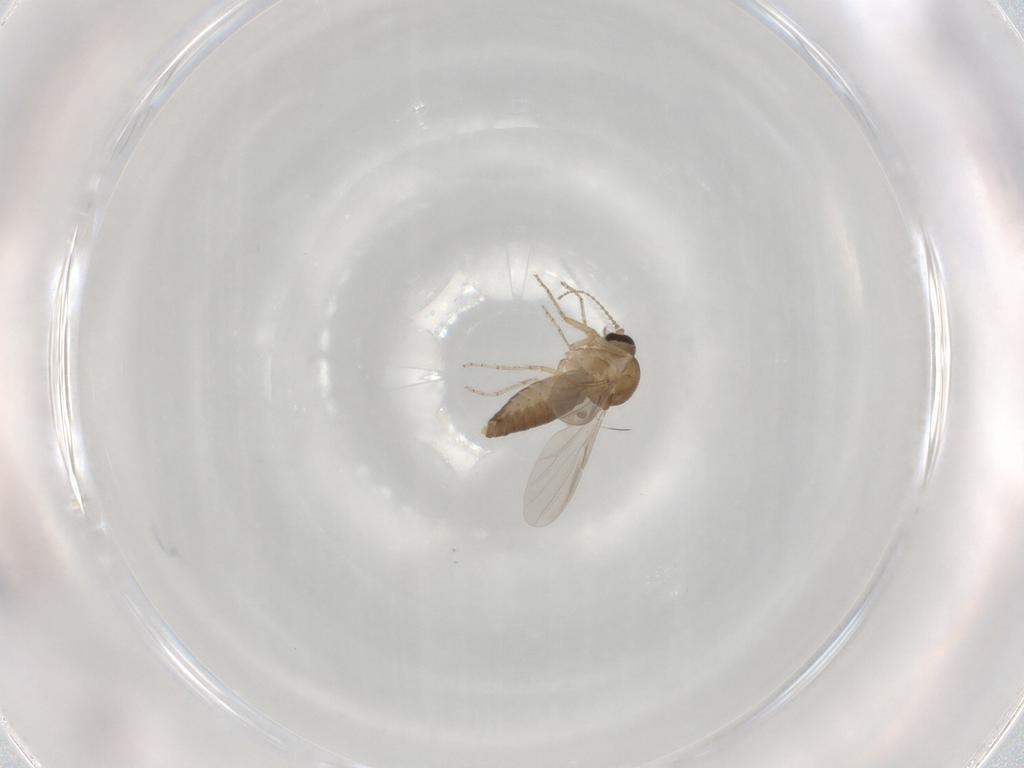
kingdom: Animalia
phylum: Arthropoda
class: Insecta
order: Diptera
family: Ceratopogonidae
